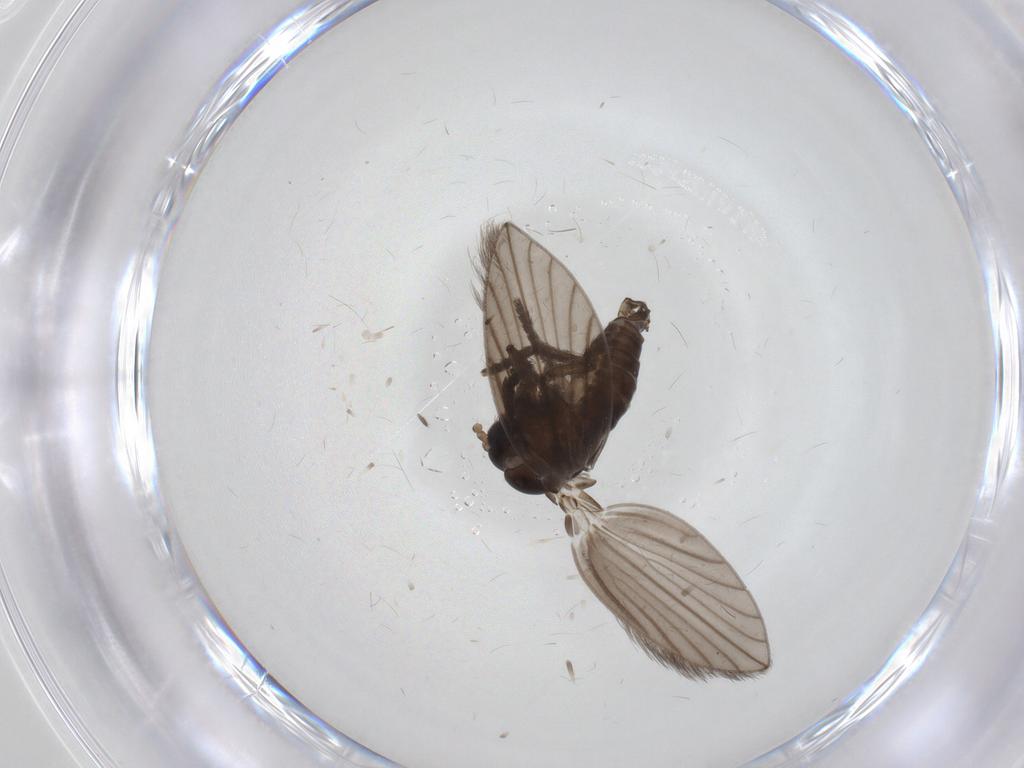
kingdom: Animalia
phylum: Arthropoda
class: Insecta
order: Diptera
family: Psychodidae
